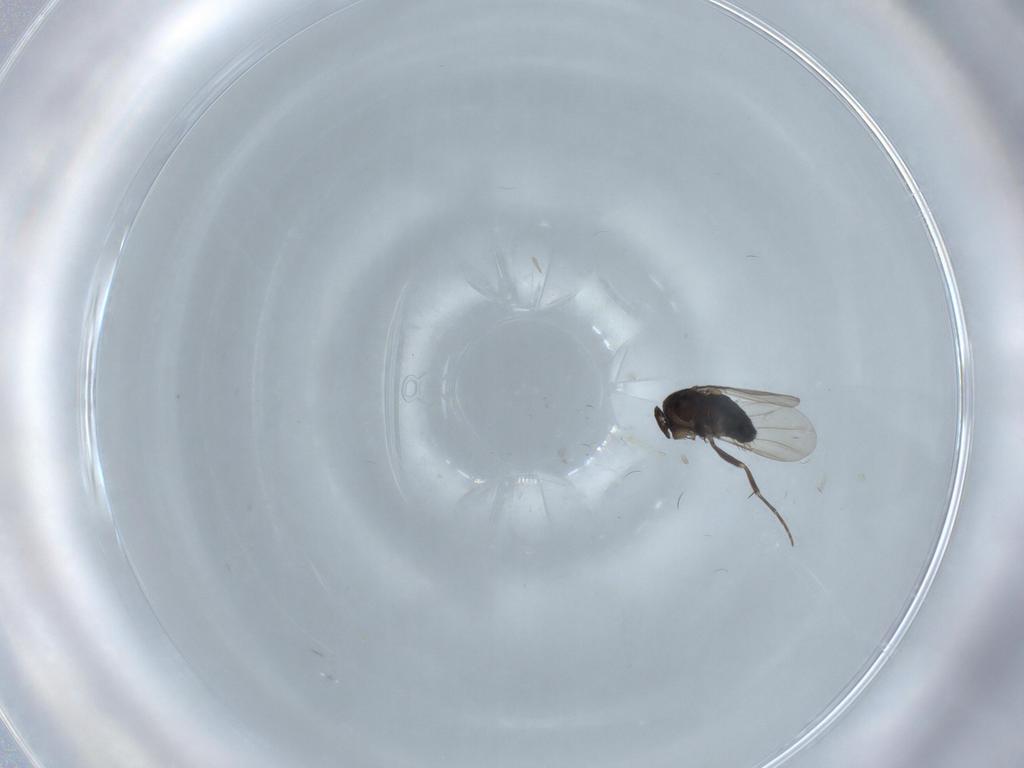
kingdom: Animalia
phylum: Arthropoda
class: Insecta
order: Diptera
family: Phoridae
